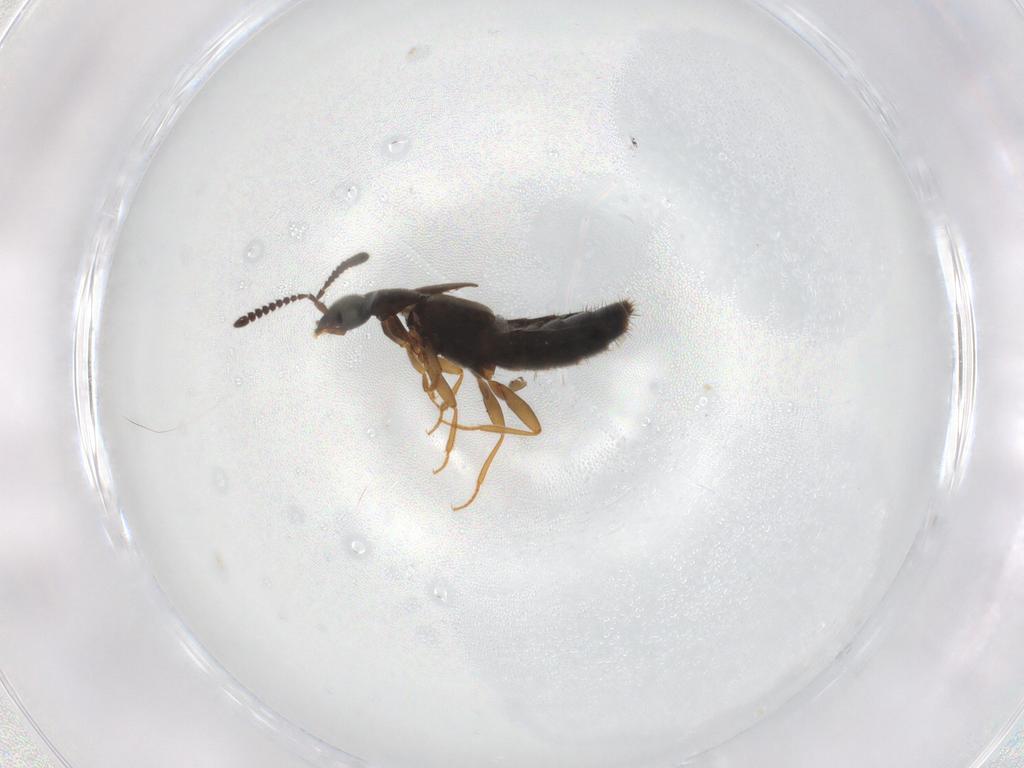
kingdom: Animalia
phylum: Arthropoda
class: Insecta
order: Coleoptera
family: Staphylinidae
